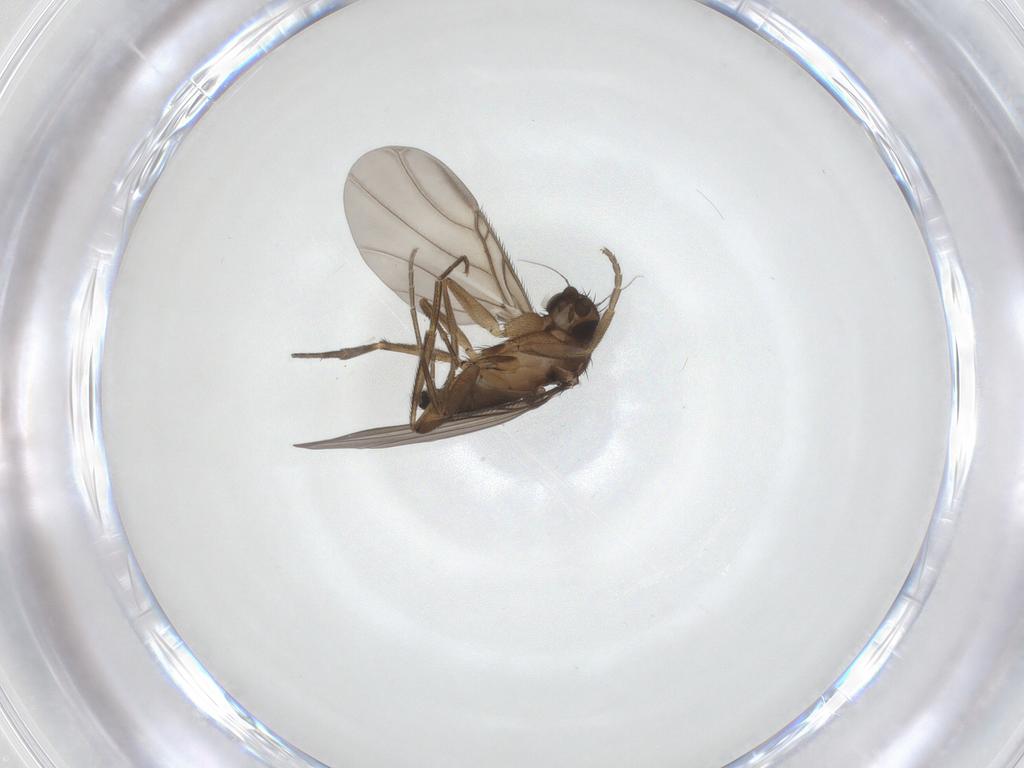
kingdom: Animalia
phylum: Arthropoda
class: Insecta
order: Diptera
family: Phoridae
